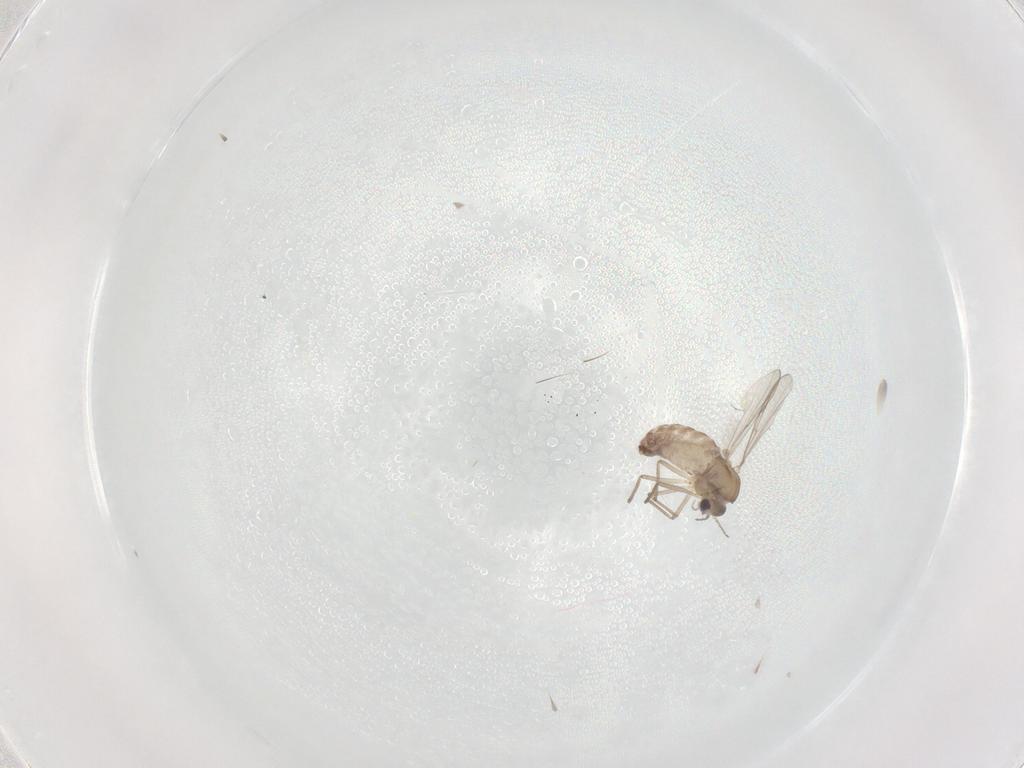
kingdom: Animalia
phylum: Arthropoda
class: Insecta
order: Diptera
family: Chironomidae
